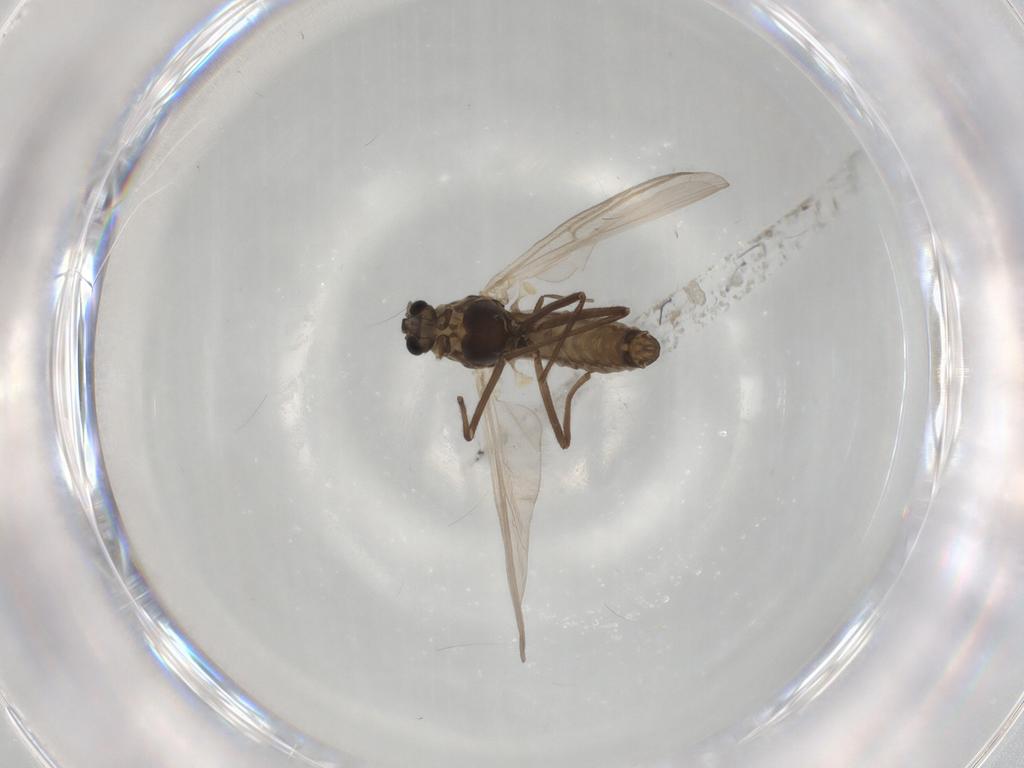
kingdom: Animalia
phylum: Arthropoda
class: Insecta
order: Diptera
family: Chironomidae
